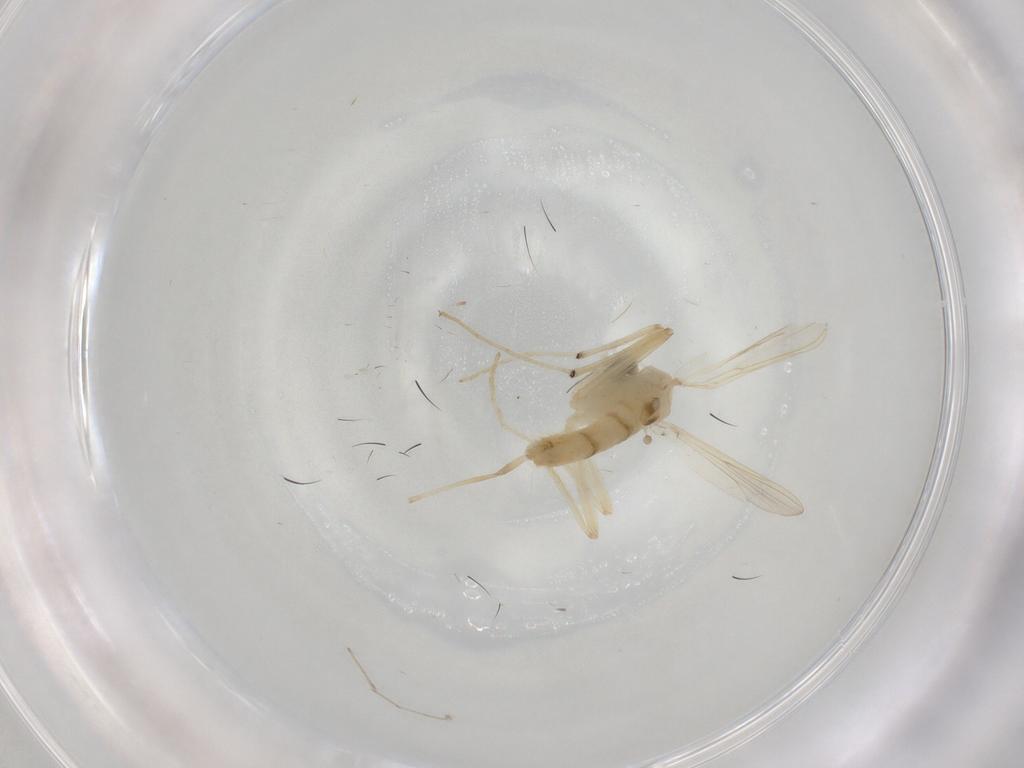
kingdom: Animalia
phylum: Arthropoda
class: Insecta
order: Diptera
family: Chironomidae
